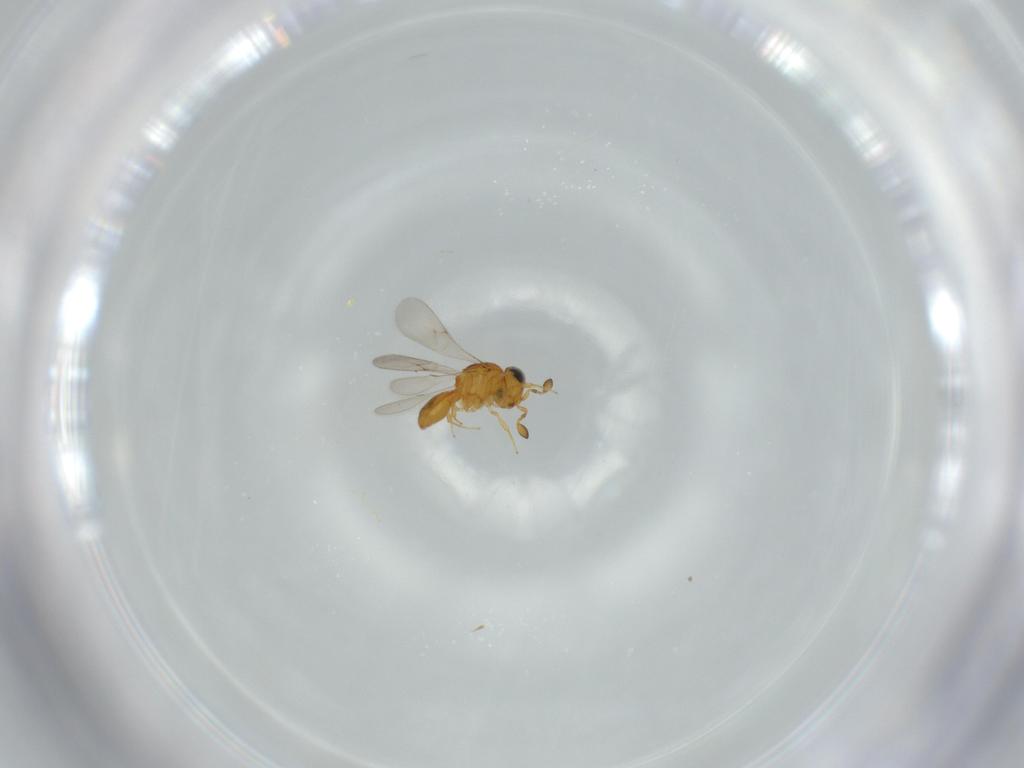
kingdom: Animalia
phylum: Arthropoda
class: Insecta
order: Hymenoptera
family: Scelionidae
